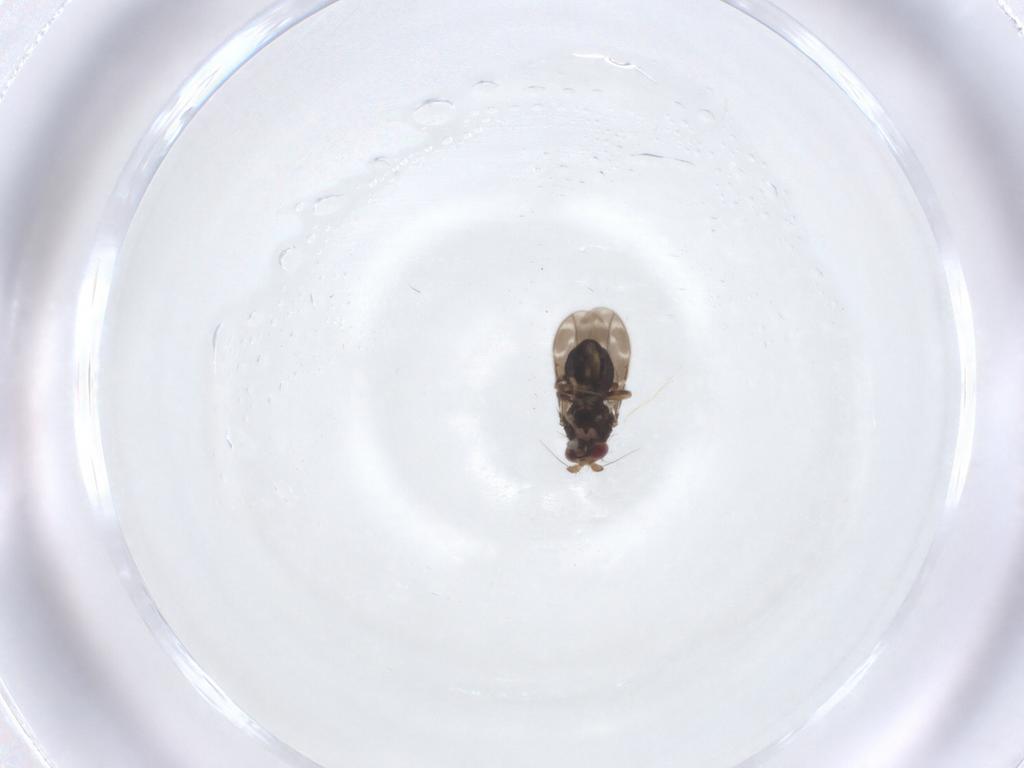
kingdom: Animalia
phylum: Arthropoda
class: Insecta
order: Diptera
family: Sphaeroceridae
